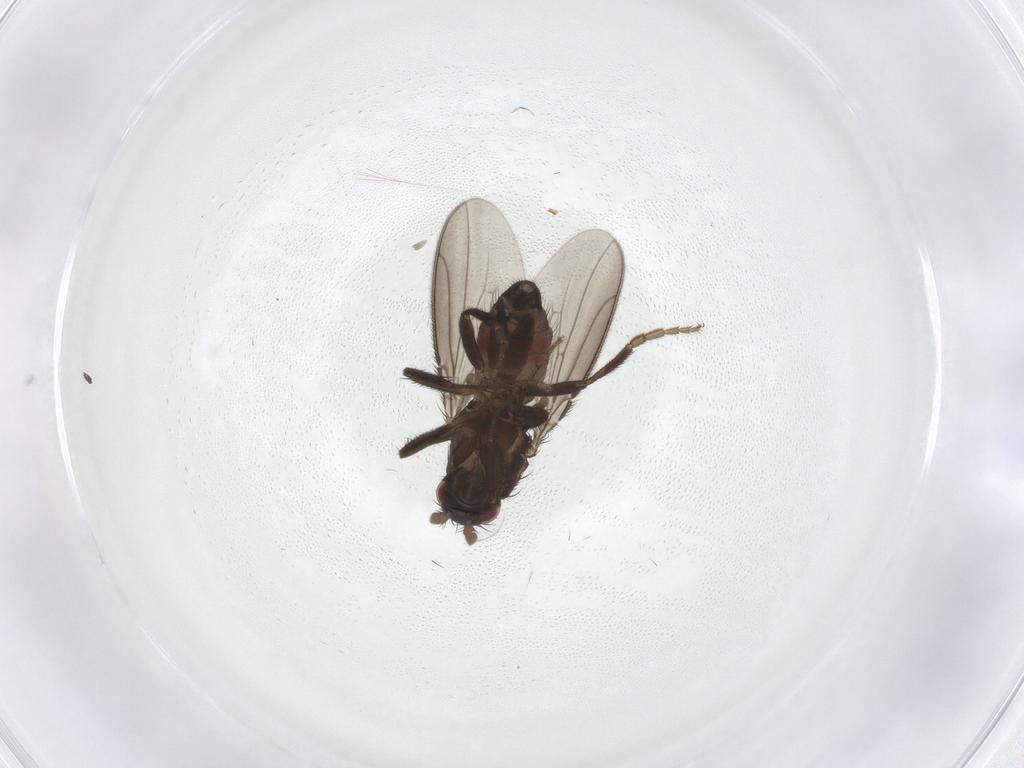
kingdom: Animalia
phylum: Arthropoda
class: Insecta
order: Diptera
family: Sphaeroceridae
